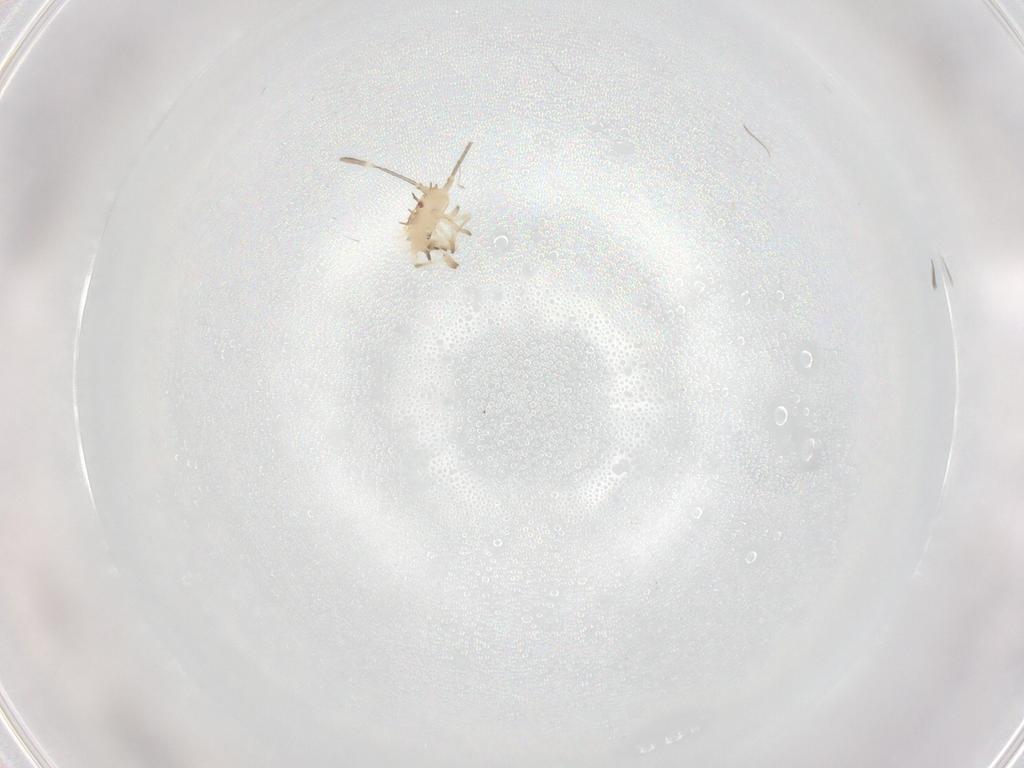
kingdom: Animalia
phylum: Arthropoda
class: Insecta
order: Hemiptera
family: Tingidae
